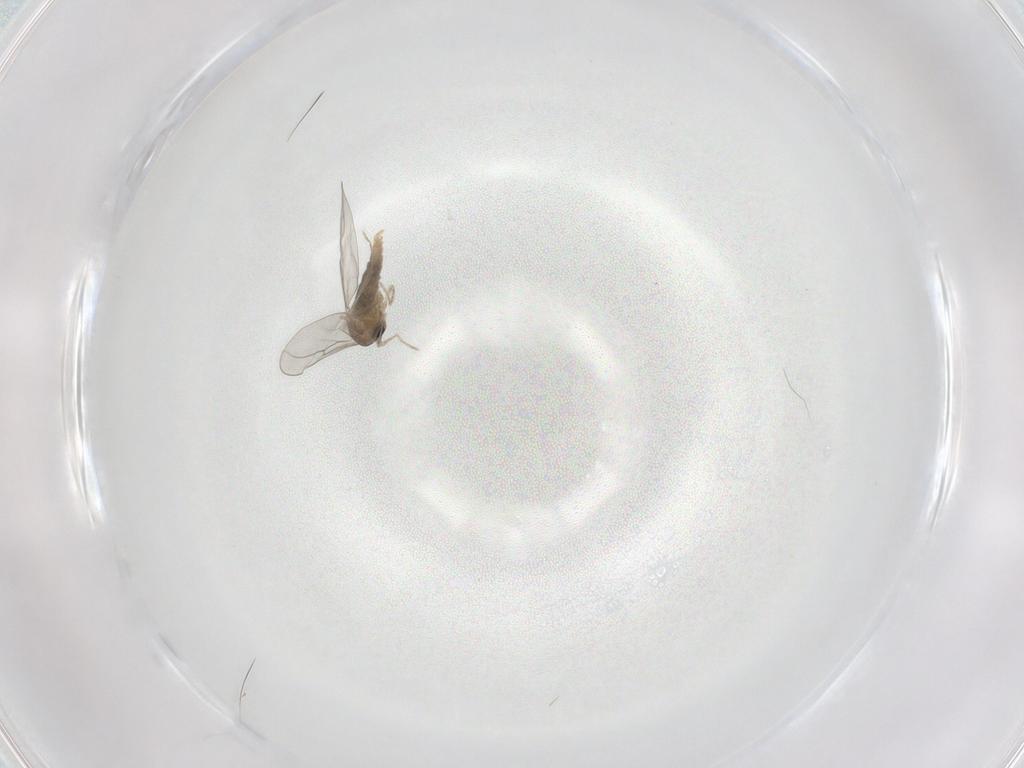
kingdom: Animalia
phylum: Arthropoda
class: Insecta
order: Diptera
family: Cecidomyiidae
